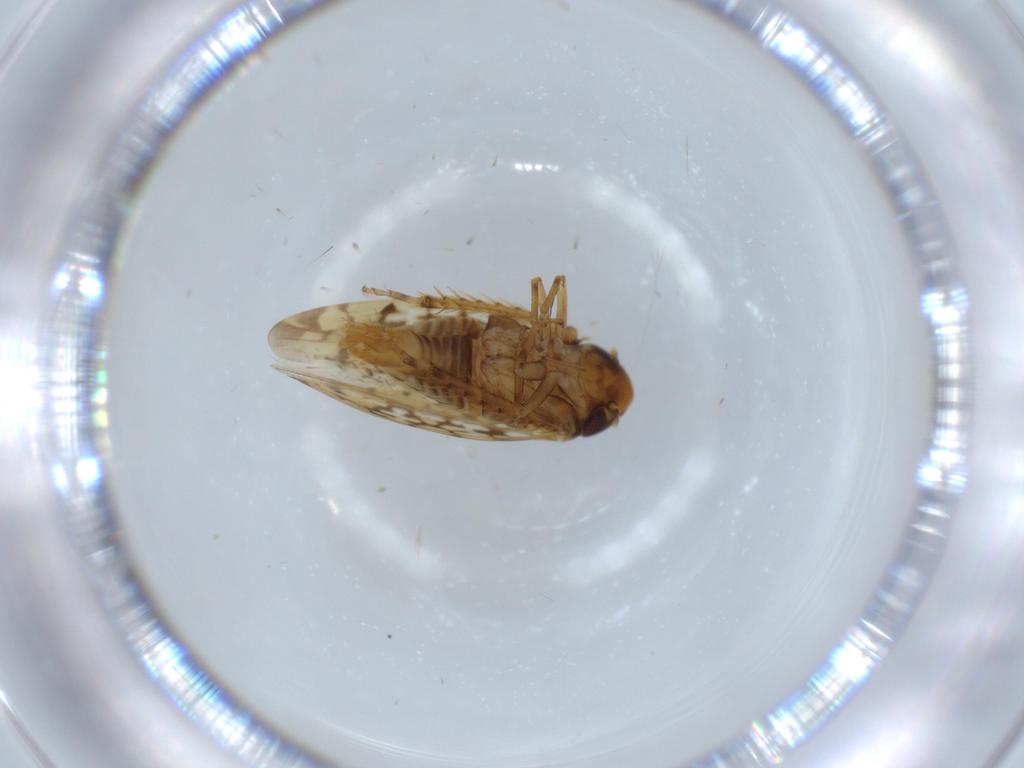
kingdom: Animalia
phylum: Arthropoda
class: Insecta
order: Hemiptera
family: Cicadellidae
